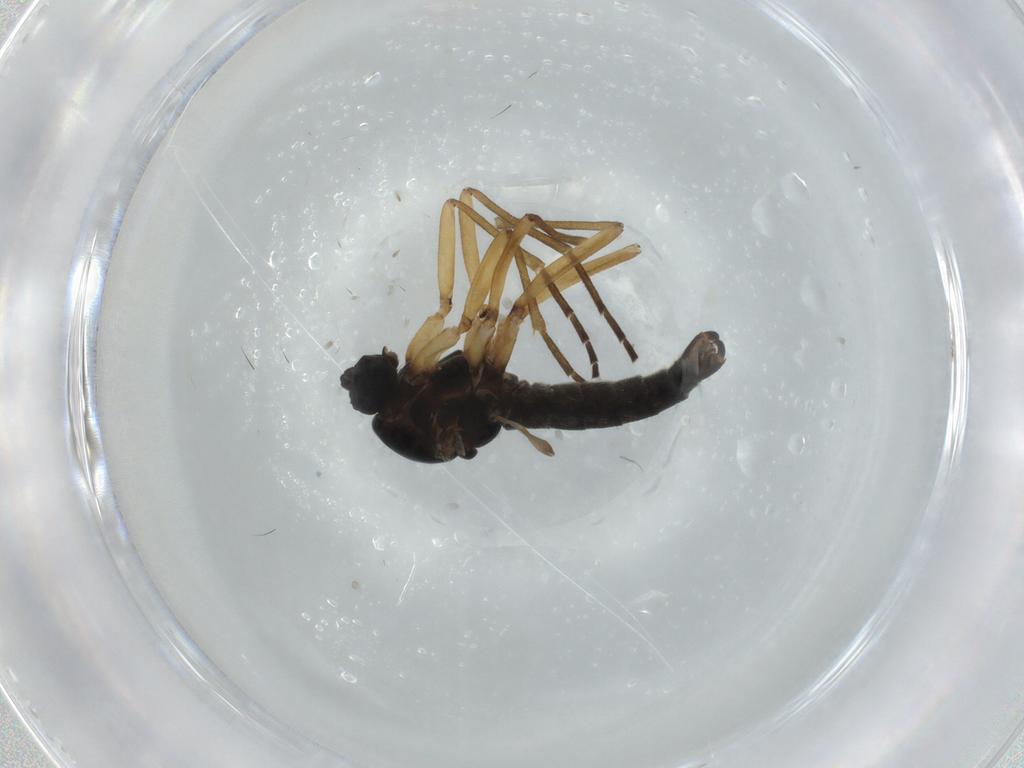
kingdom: Animalia
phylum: Arthropoda
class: Insecta
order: Diptera
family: Sciaridae
